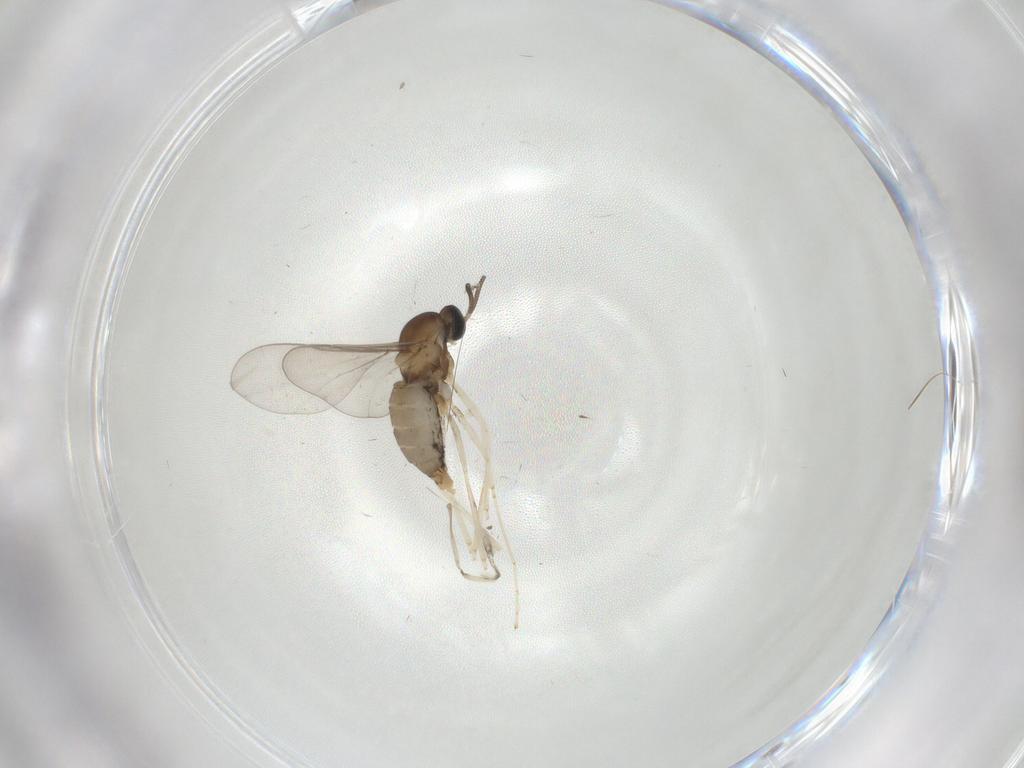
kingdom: Animalia
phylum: Arthropoda
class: Insecta
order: Diptera
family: Cecidomyiidae
